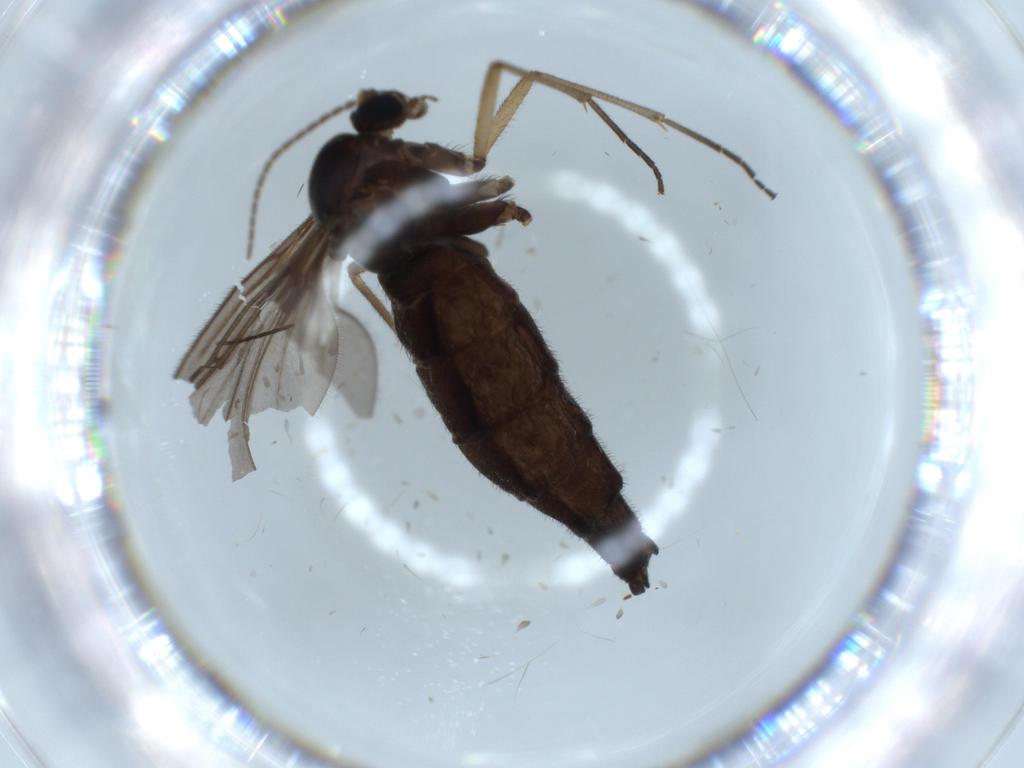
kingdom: Animalia
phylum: Arthropoda
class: Insecta
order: Diptera
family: Sciaridae
